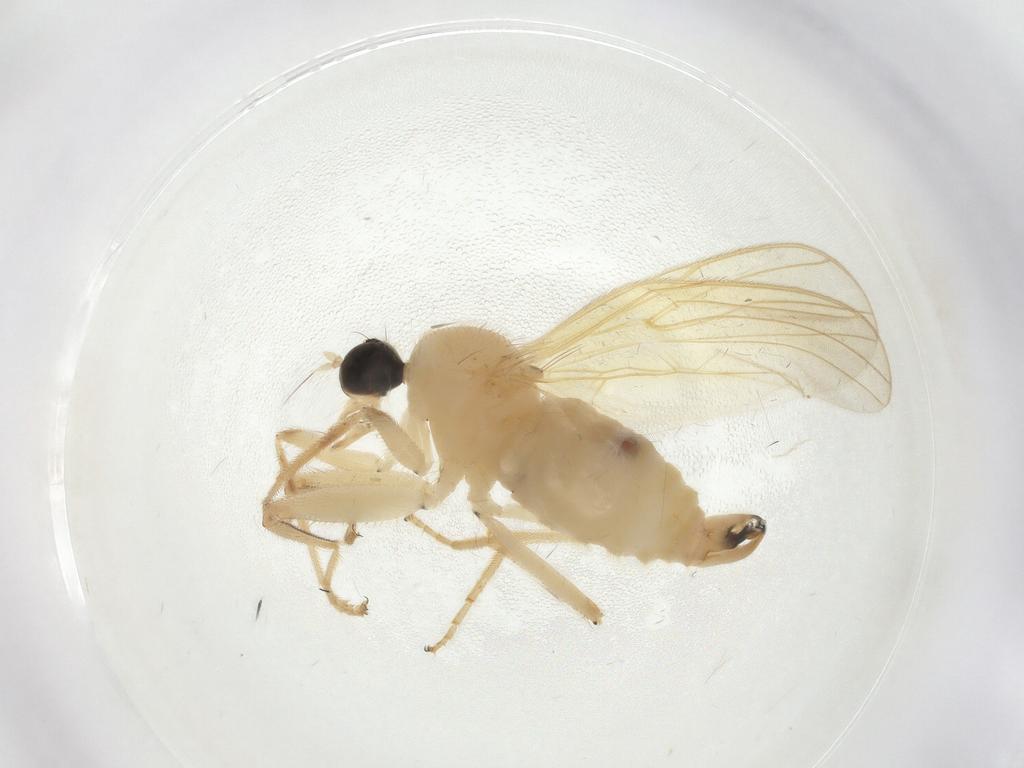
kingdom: Animalia
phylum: Arthropoda
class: Insecta
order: Diptera
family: Hybotidae
